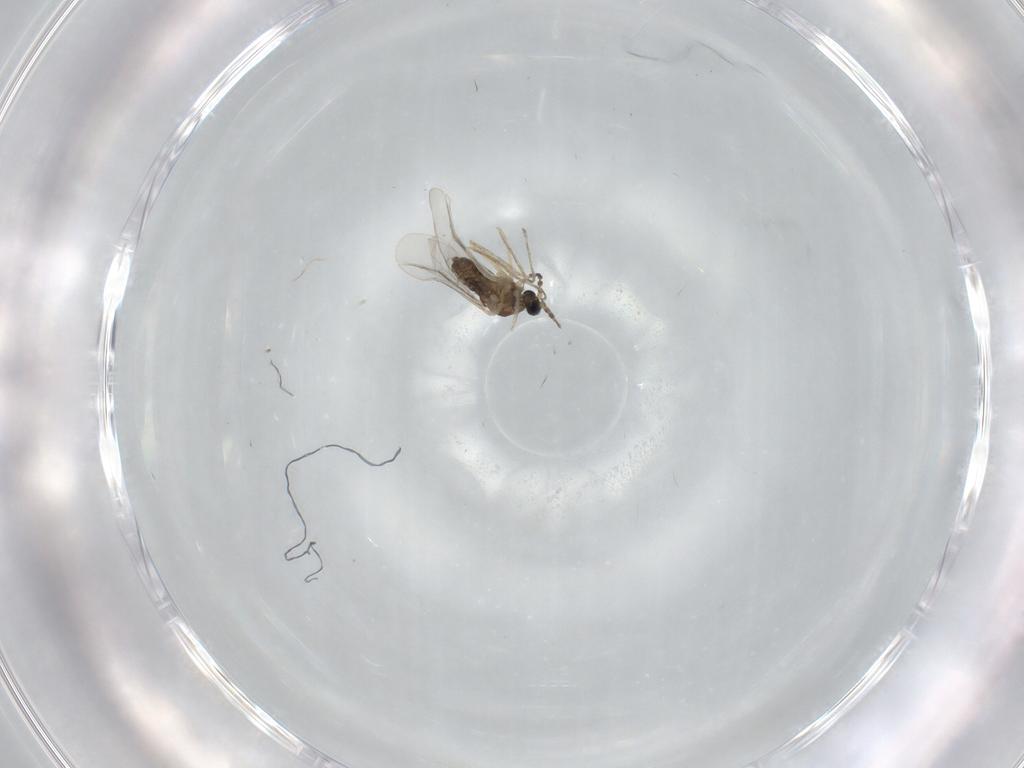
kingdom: Animalia
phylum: Arthropoda
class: Insecta
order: Diptera
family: Cecidomyiidae
